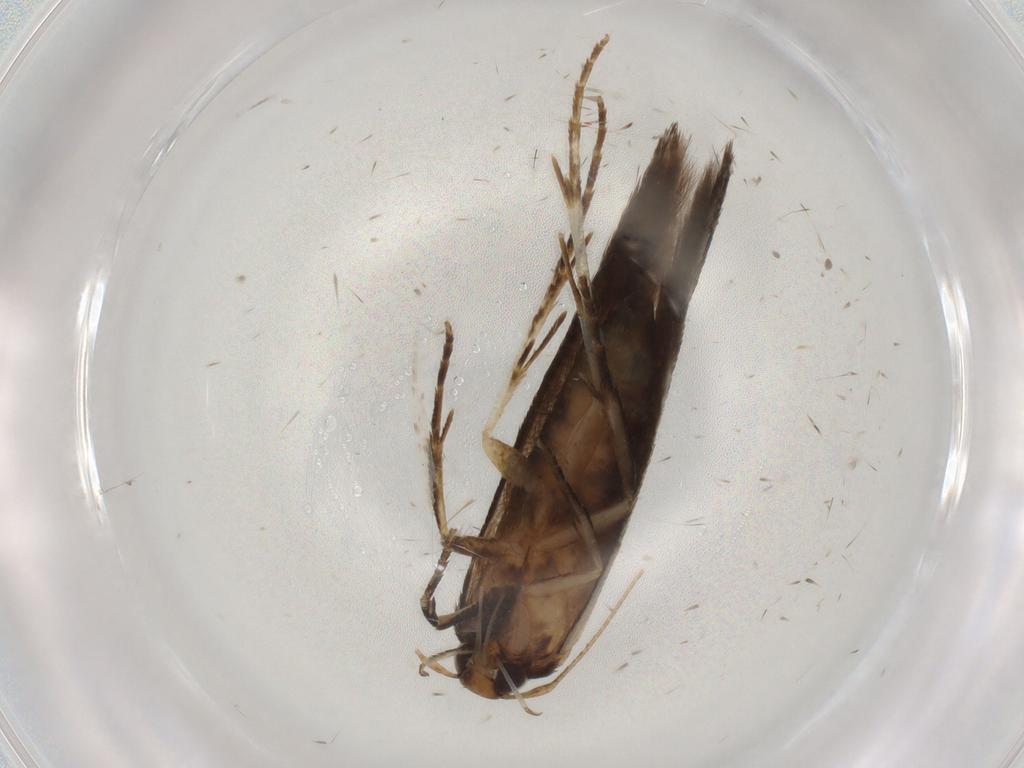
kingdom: Animalia
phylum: Arthropoda
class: Insecta
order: Lepidoptera
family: Cosmopterigidae
